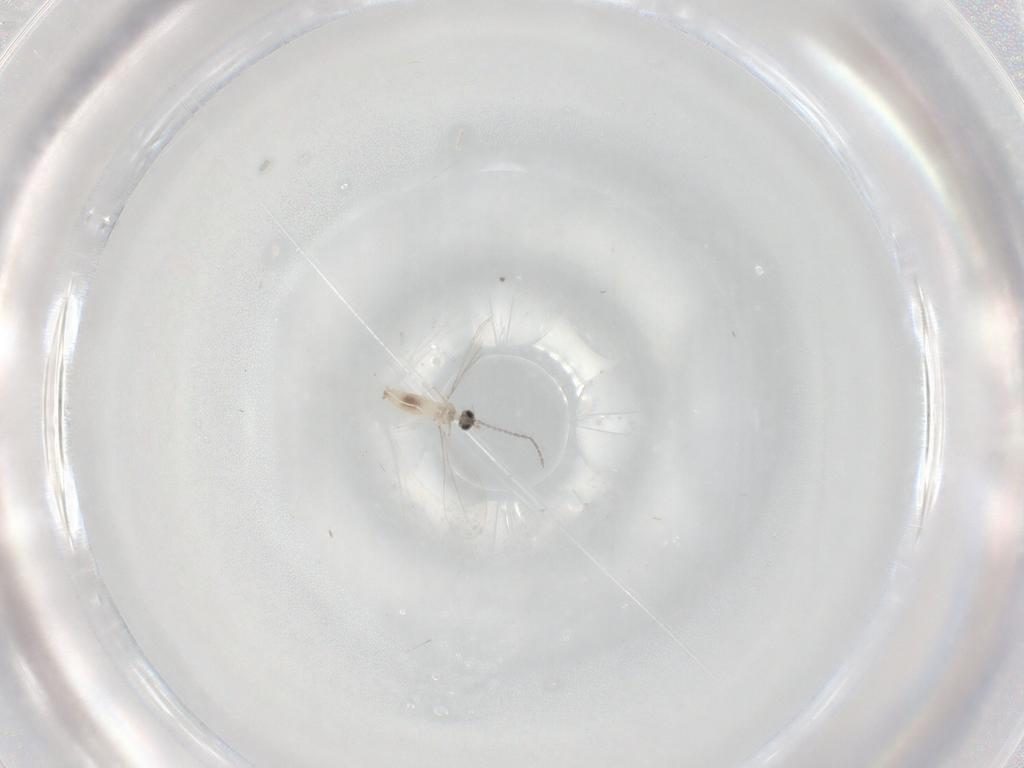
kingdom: Animalia
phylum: Arthropoda
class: Insecta
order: Diptera
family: Cecidomyiidae
